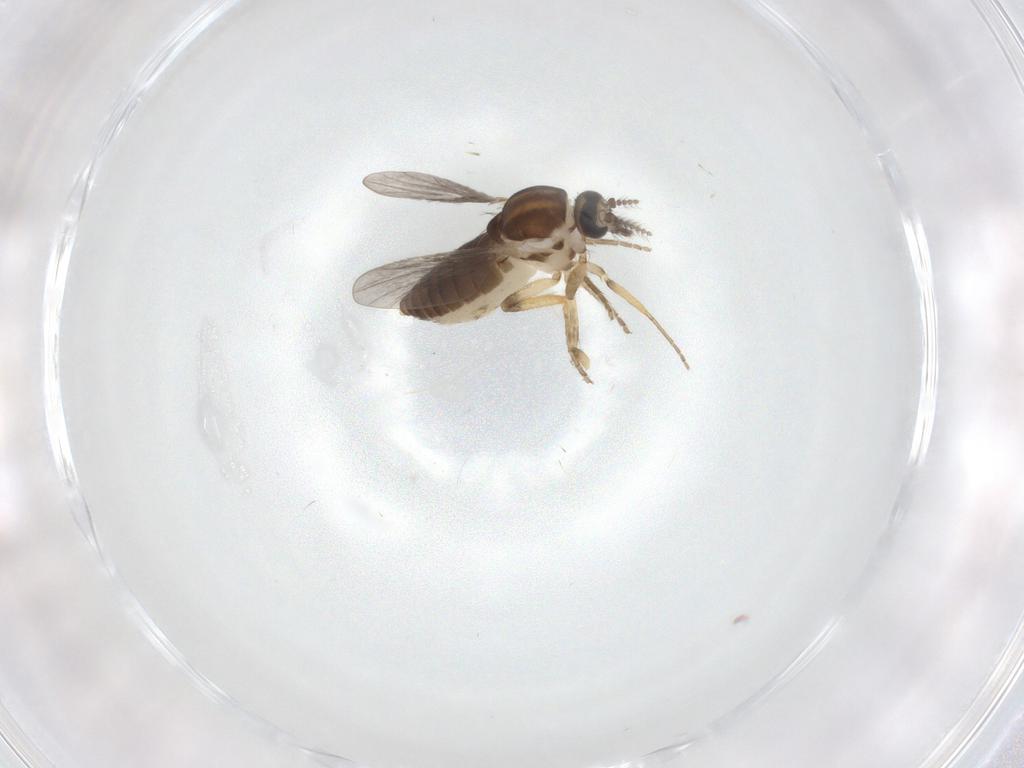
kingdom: Animalia
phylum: Arthropoda
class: Insecta
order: Diptera
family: Ceratopogonidae
